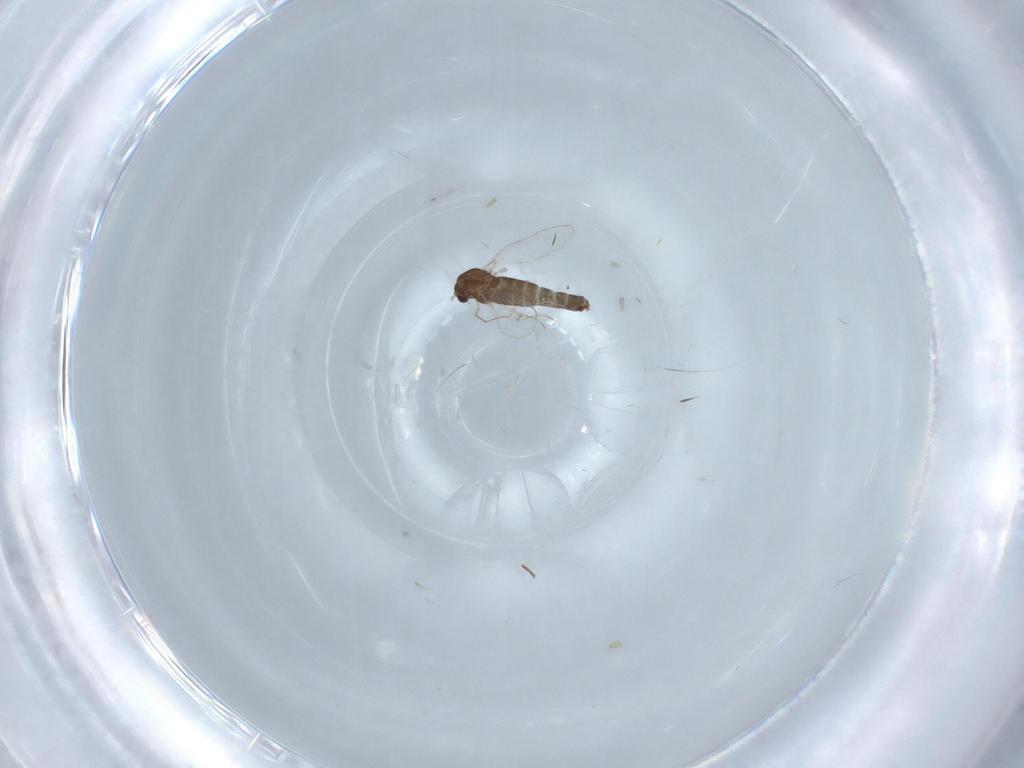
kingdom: Animalia
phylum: Arthropoda
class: Insecta
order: Diptera
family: Chironomidae
